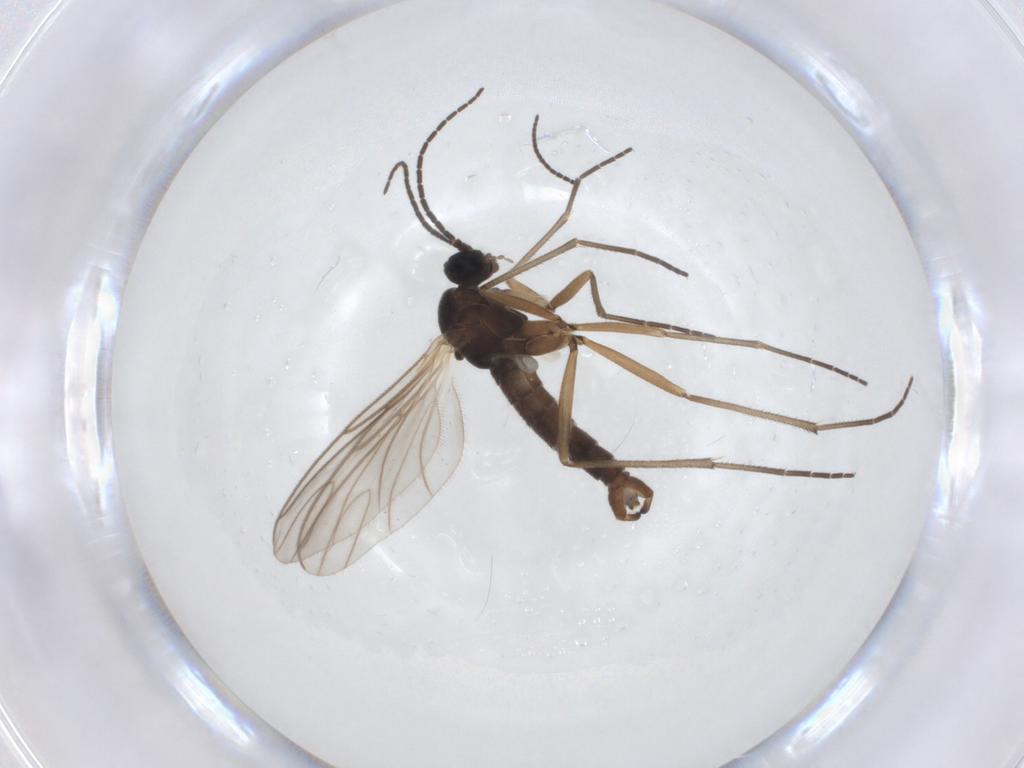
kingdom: Animalia
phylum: Arthropoda
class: Insecta
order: Diptera
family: Sciaridae
